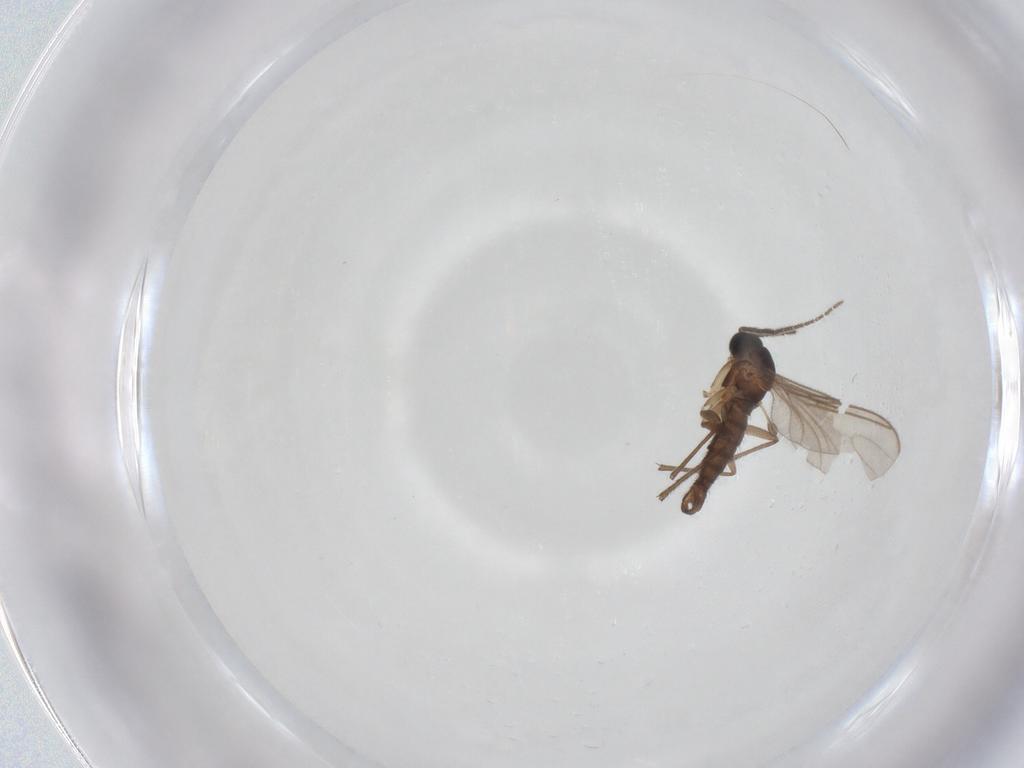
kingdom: Animalia
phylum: Arthropoda
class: Insecta
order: Diptera
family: Sciaridae
